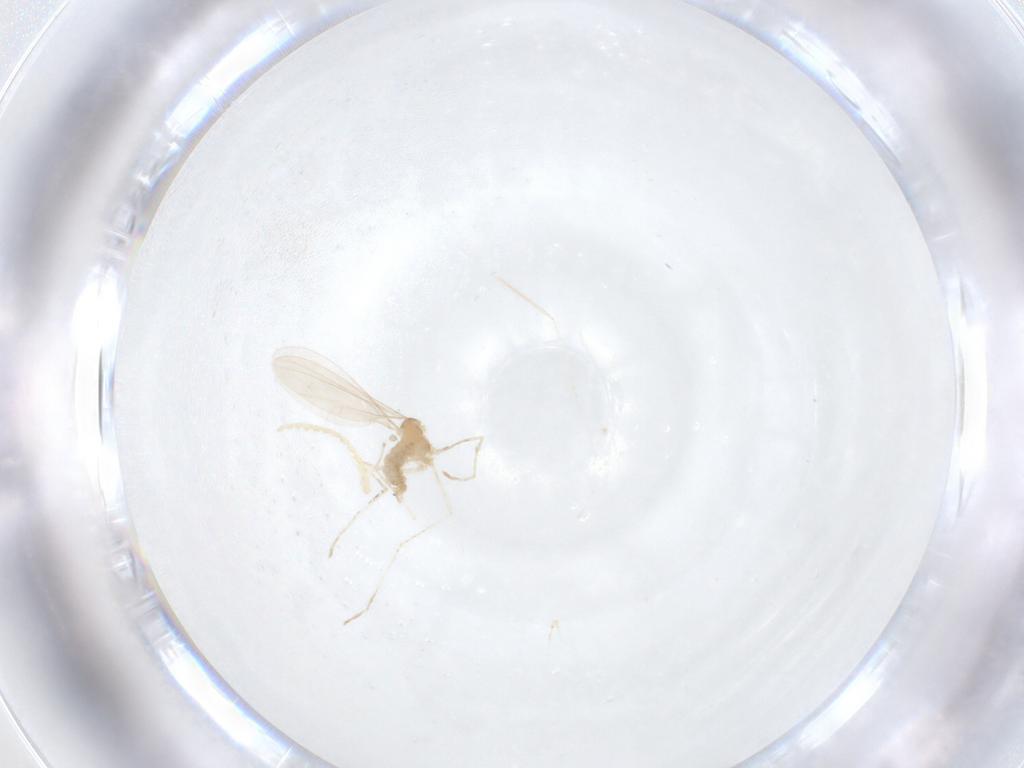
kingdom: Animalia
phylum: Arthropoda
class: Insecta
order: Diptera
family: Cecidomyiidae
